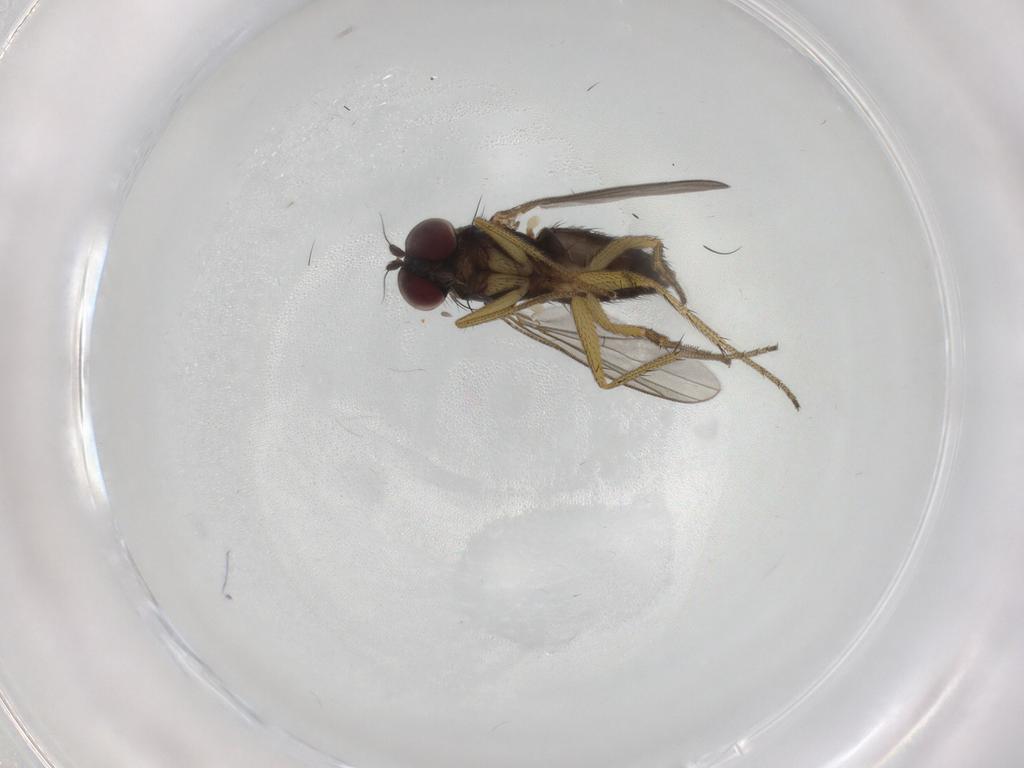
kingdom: Animalia
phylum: Arthropoda
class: Insecta
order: Diptera
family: Dolichopodidae
